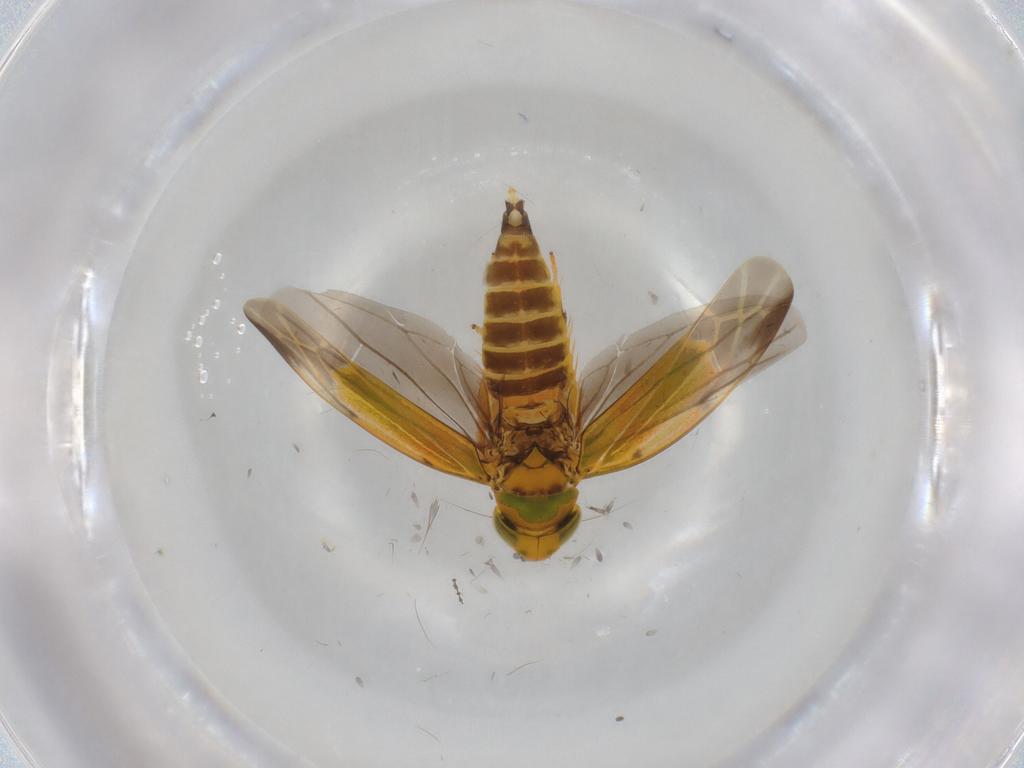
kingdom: Animalia
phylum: Arthropoda
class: Insecta
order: Hemiptera
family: Cicadellidae
